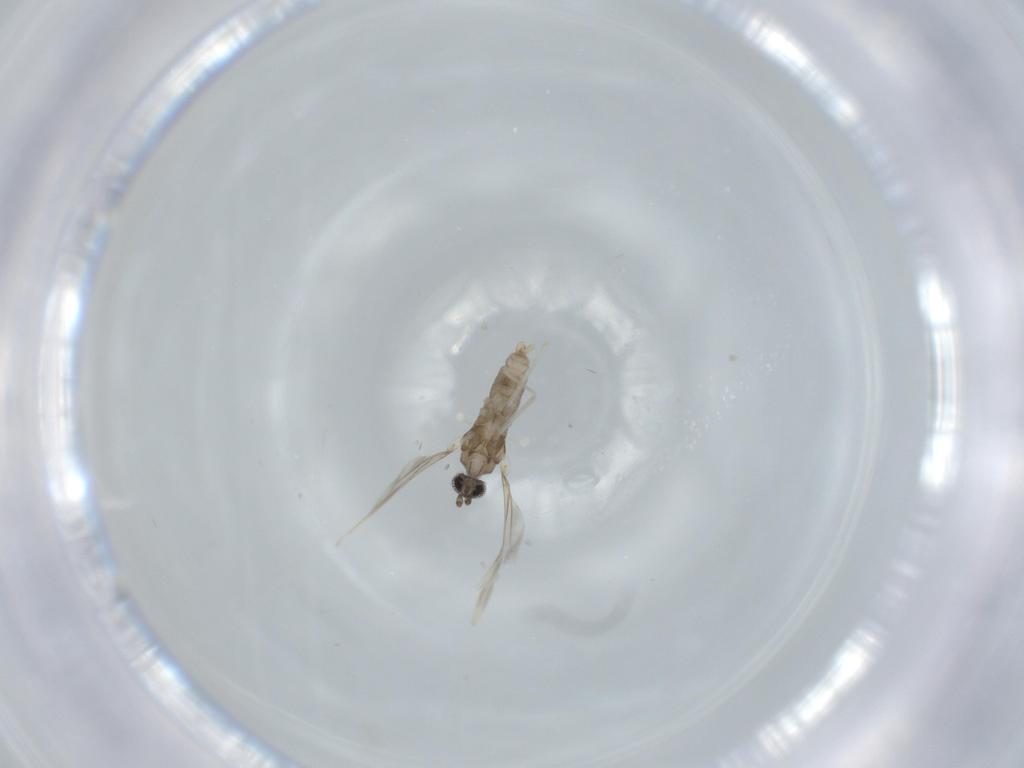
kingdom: Animalia
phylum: Arthropoda
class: Insecta
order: Diptera
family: Cecidomyiidae
